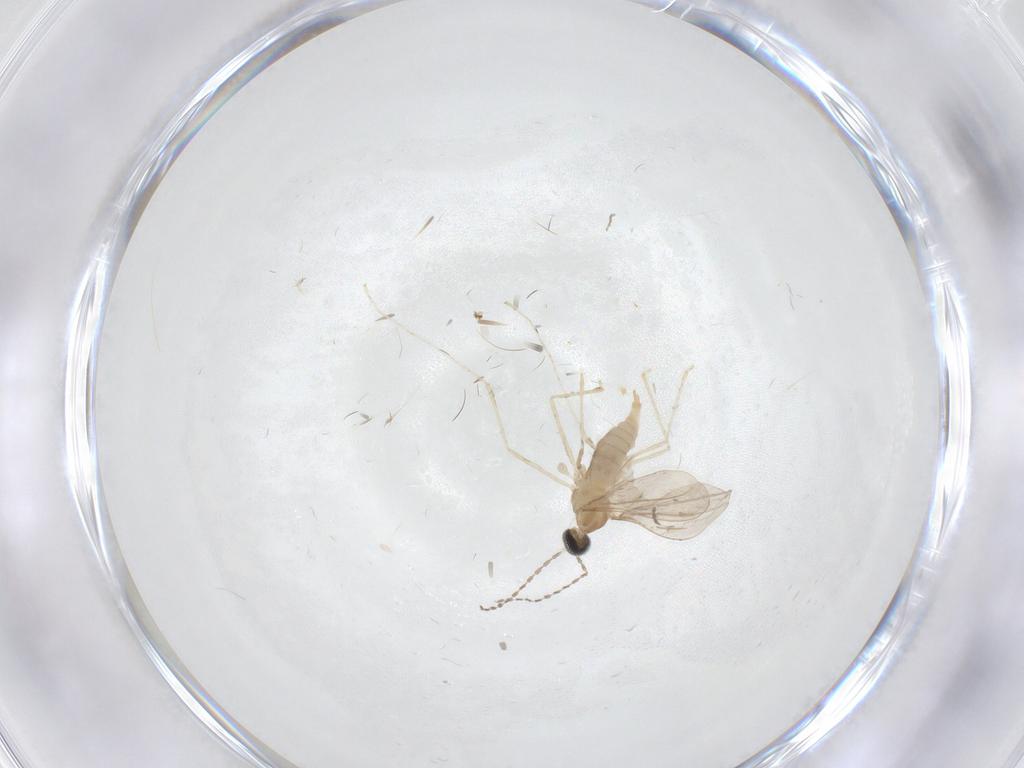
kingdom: Animalia
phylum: Arthropoda
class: Insecta
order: Diptera
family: Cecidomyiidae
